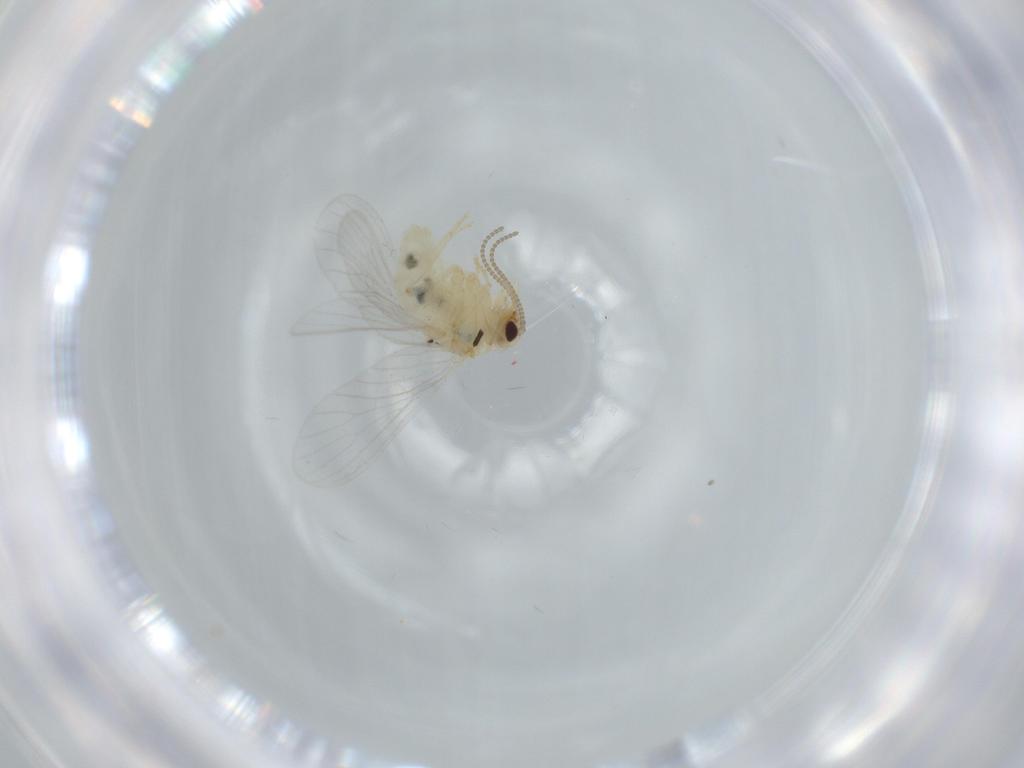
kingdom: Animalia
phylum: Arthropoda
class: Insecta
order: Neuroptera
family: Coniopterygidae
